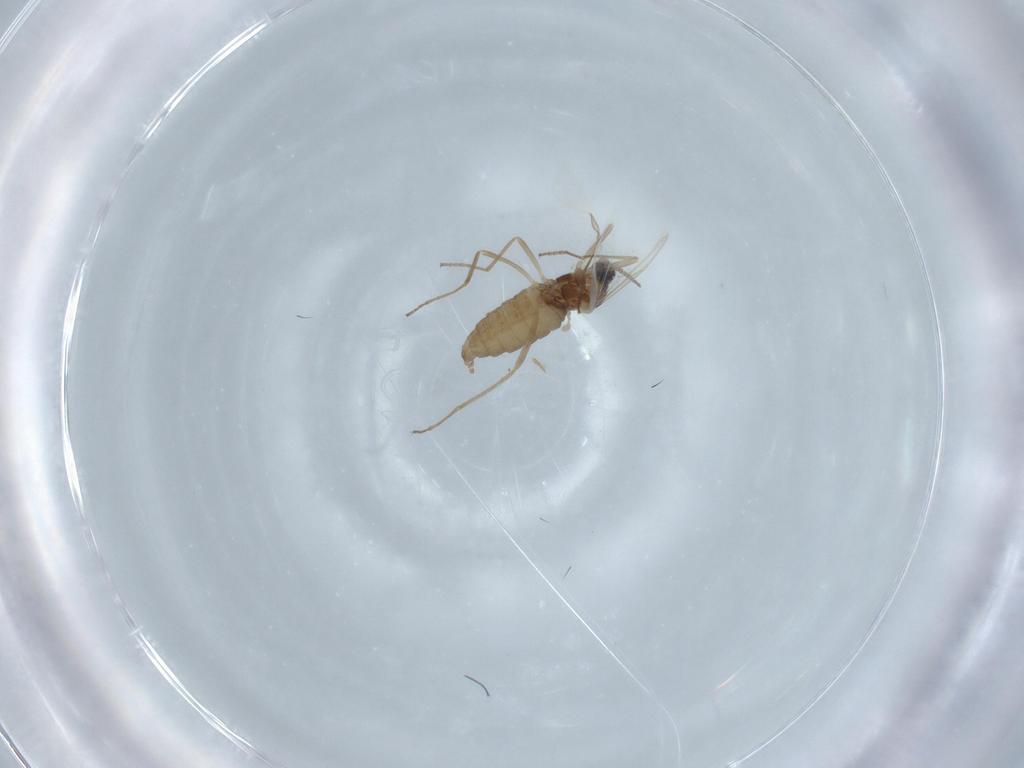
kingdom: Animalia
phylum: Arthropoda
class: Insecta
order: Diptera
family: Cecidomyiidae
